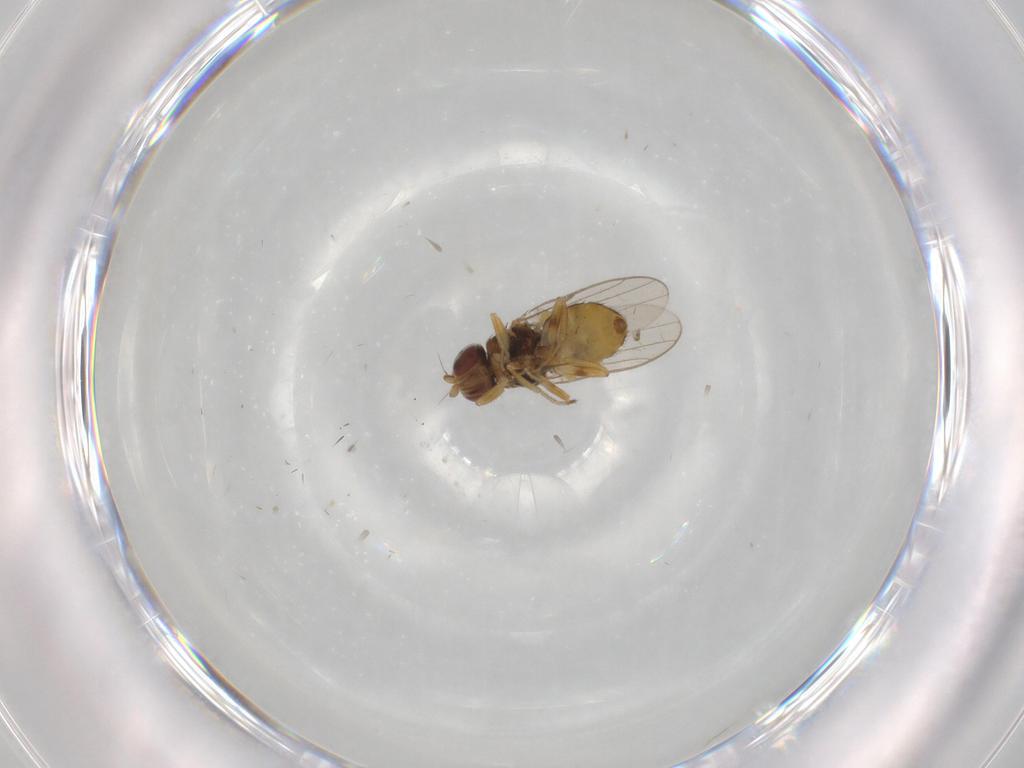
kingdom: Animalia
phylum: Arthropoda
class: Insecta
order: Diptera
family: Chloropidae
